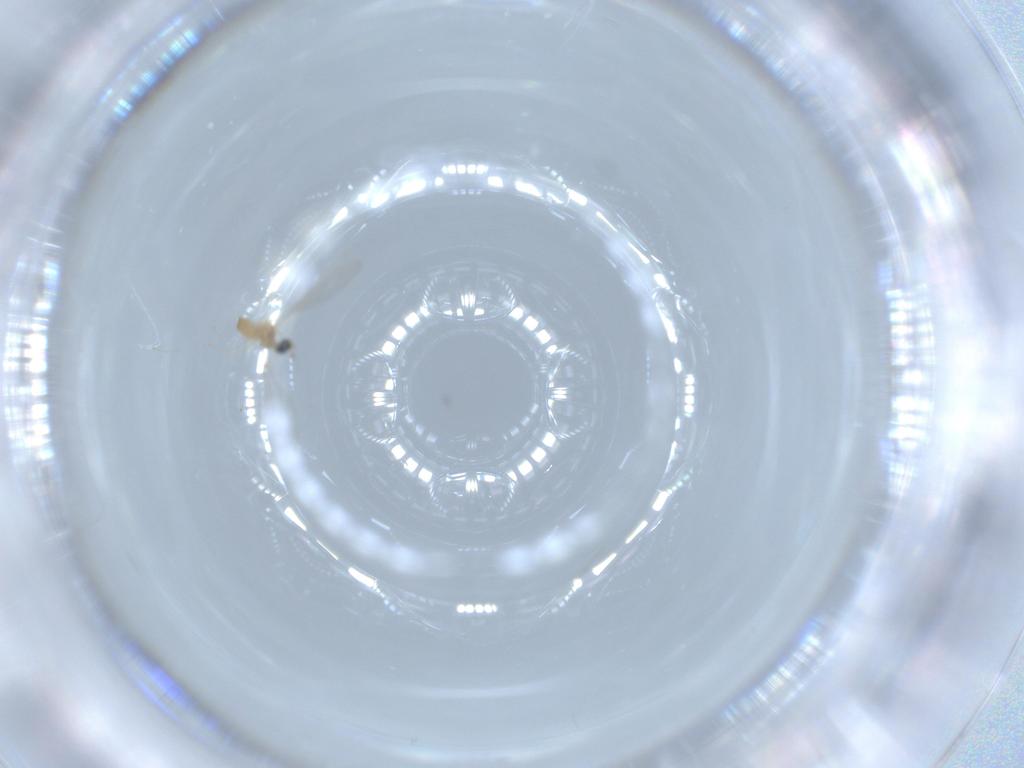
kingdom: Animalia
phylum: Arthropoda
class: Insecta
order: Diptera
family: Cecidomyiidae
